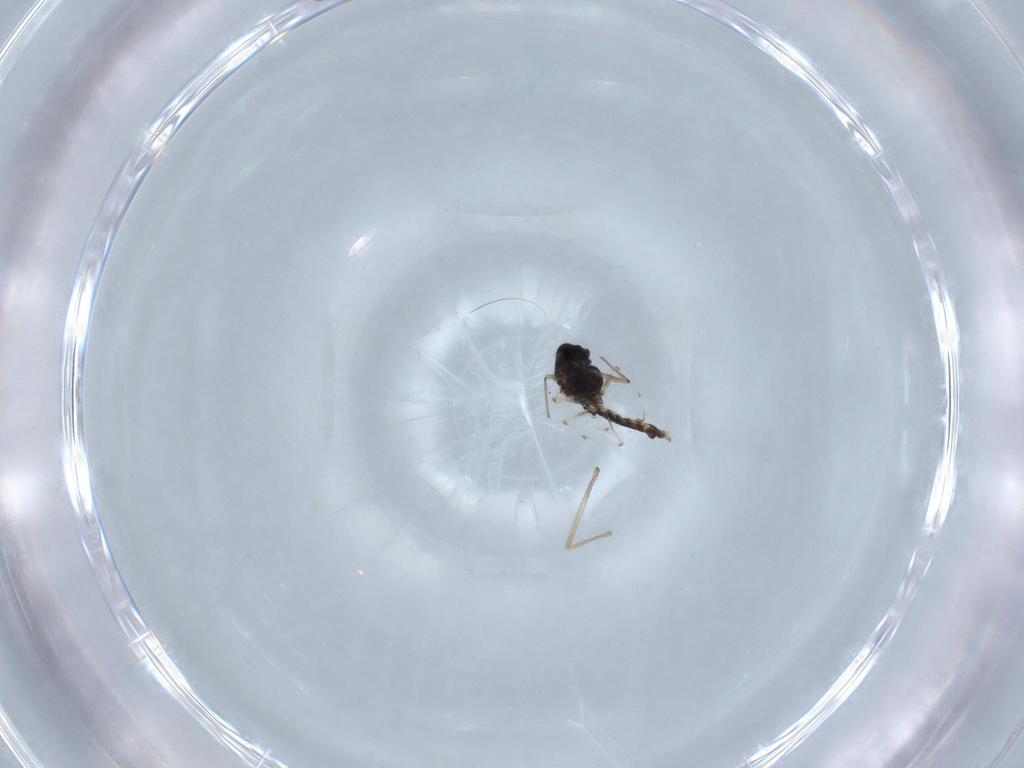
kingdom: Animalia
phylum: Arthropoda
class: Insecta
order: Diptera
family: Chironomidae
